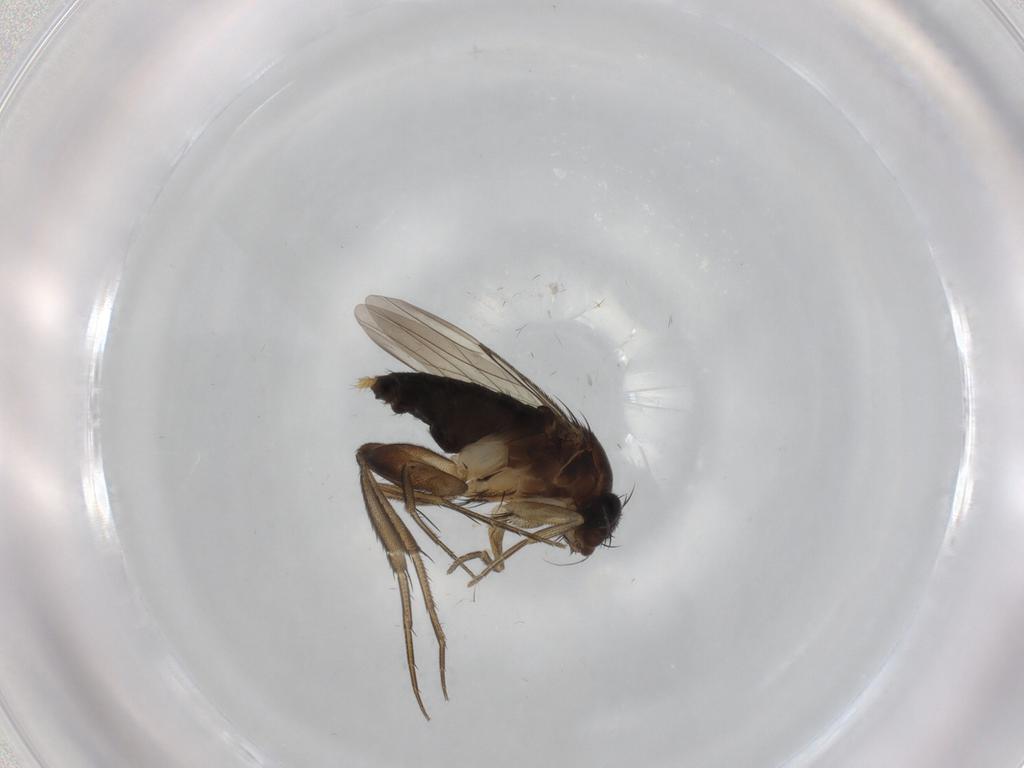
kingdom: Animalia
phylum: Arthropoda
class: Insecta
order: Diptera
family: Phoridae
